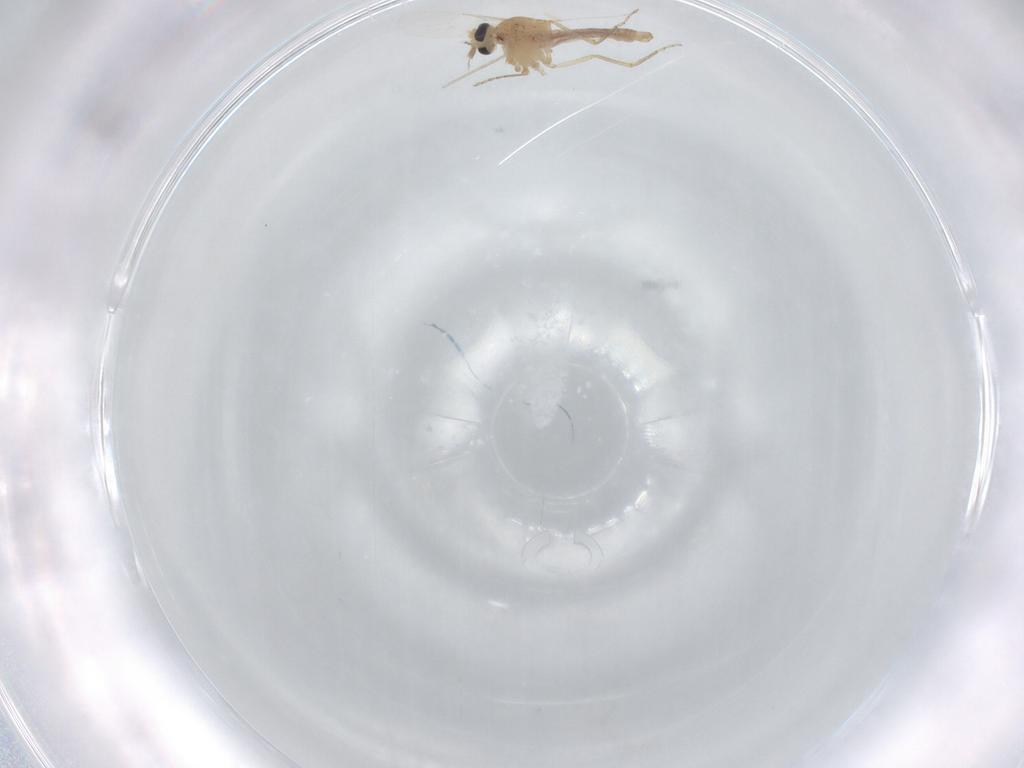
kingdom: Animalia
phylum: Arthropoda
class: Insecta
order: Diptera
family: Ceratopogonidae
